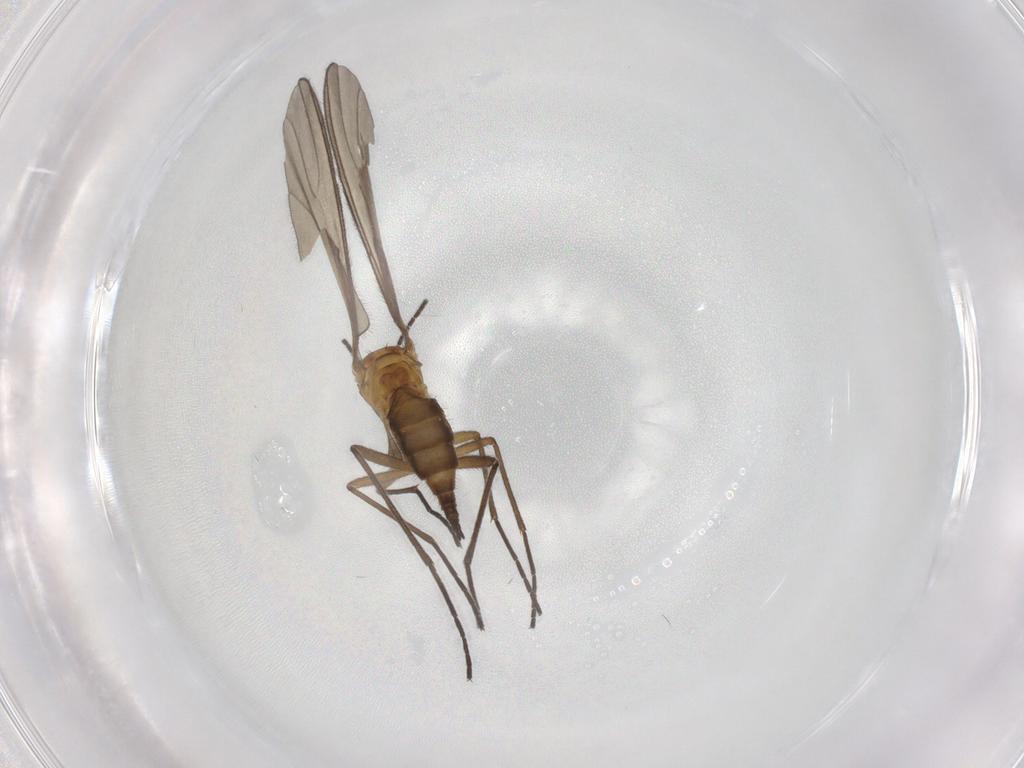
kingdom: Animalia
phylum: Arthropoda
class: Insecta
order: Diptera
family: Sciaridae
